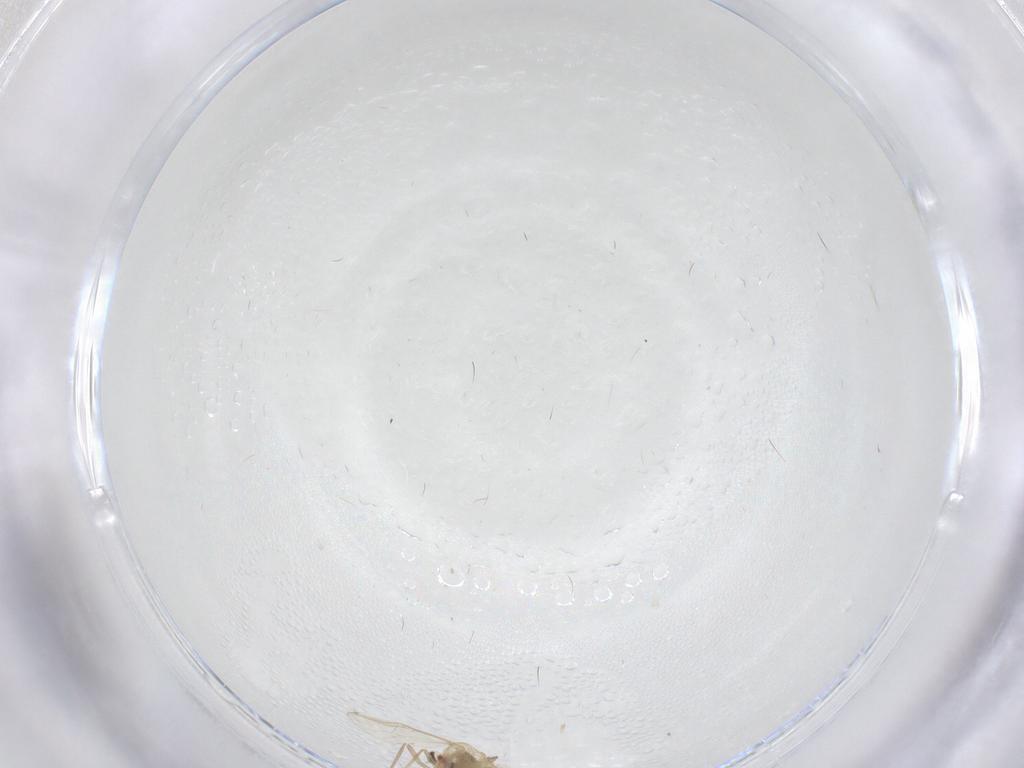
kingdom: Animalia
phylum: Arthropoda
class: Insecta
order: Diptera
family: Chironomidae
